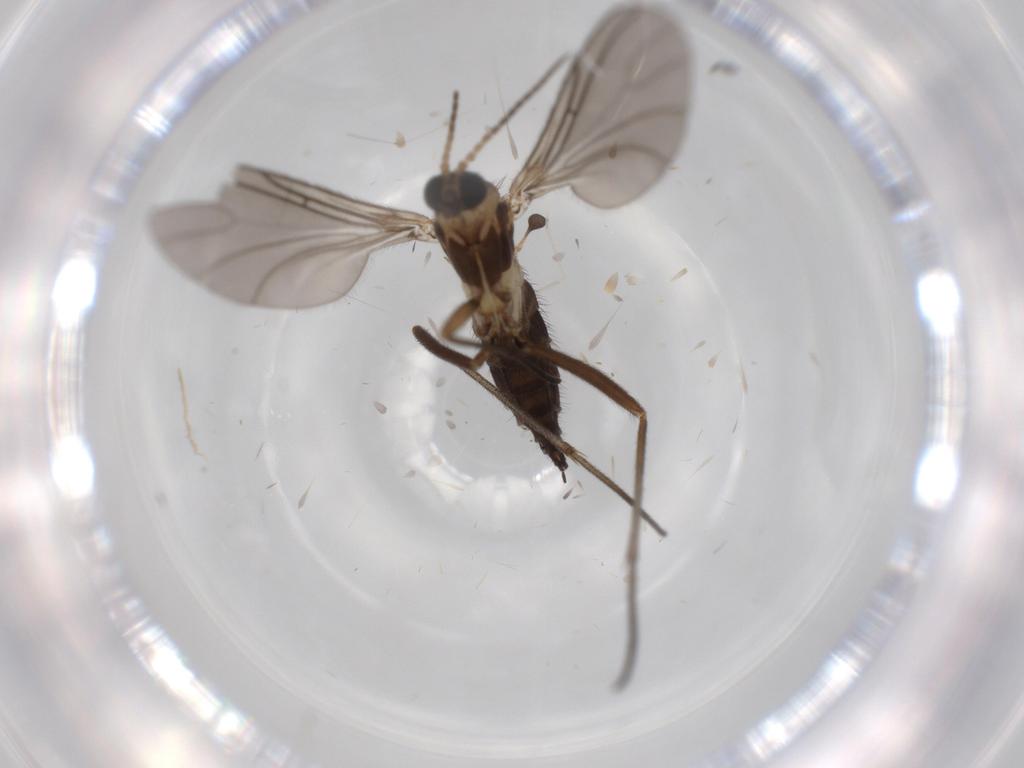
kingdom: Animalia
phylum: Arthropoda
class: Insecta
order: Diptera
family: Sciaridae
